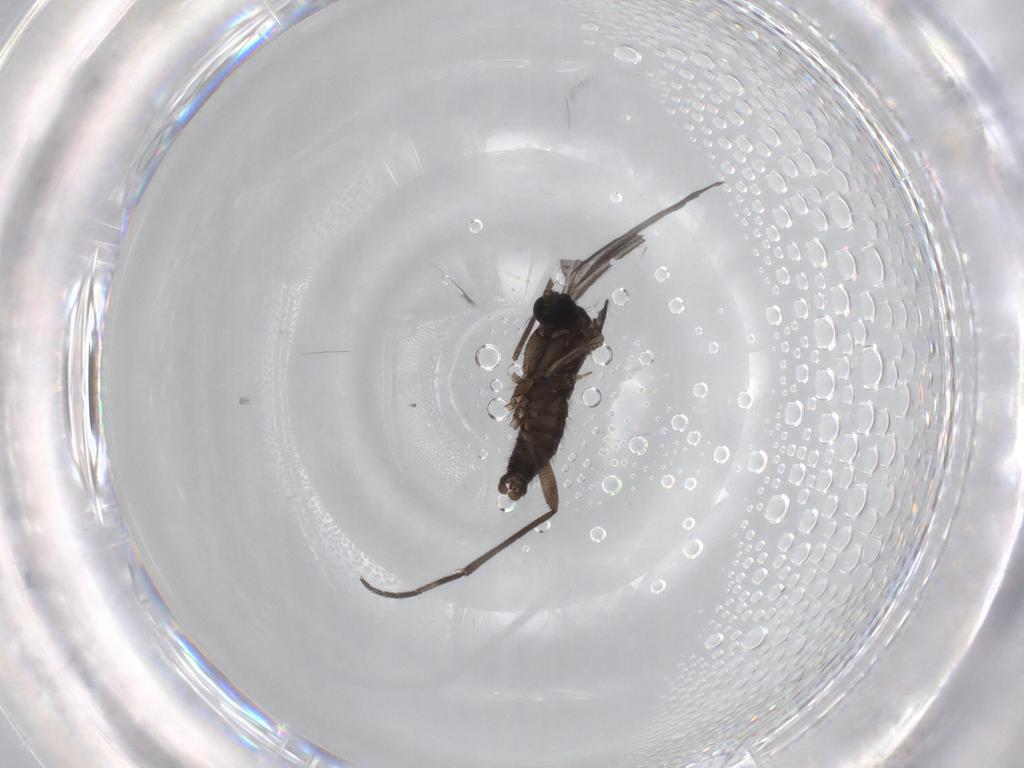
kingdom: Animalia
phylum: Arthropoda
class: Insecta
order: Diptera
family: Sciaridae
